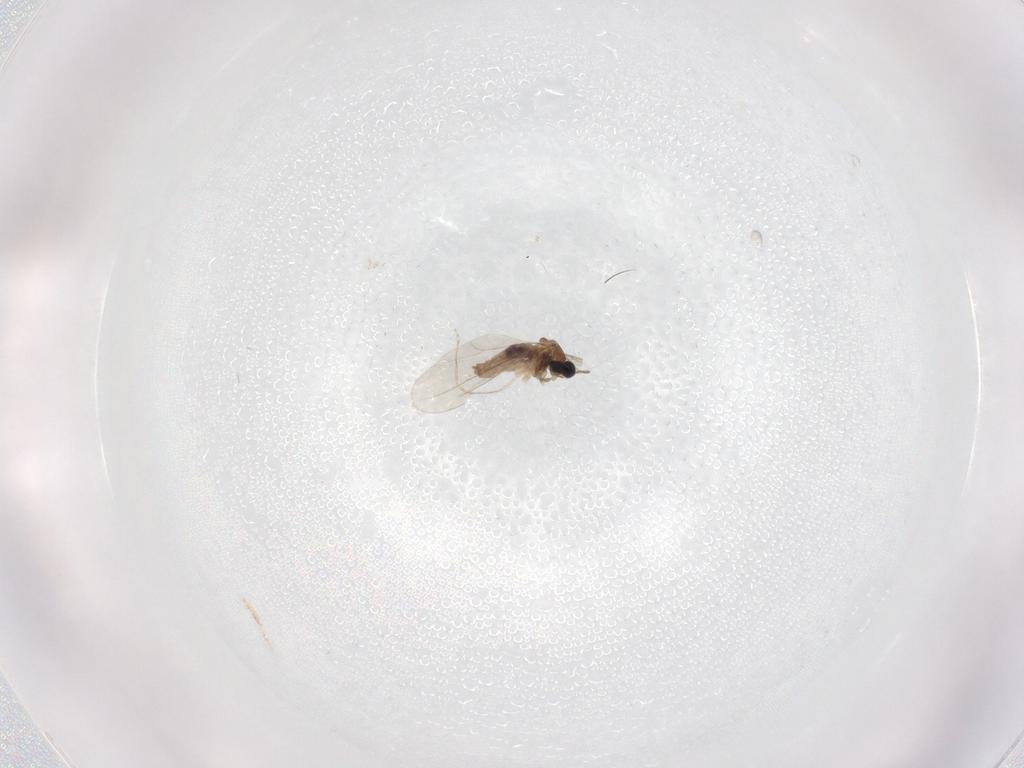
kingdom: Animalia
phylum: Arthropoda
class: Insecta
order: Diptera
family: Cecidomyiidae
